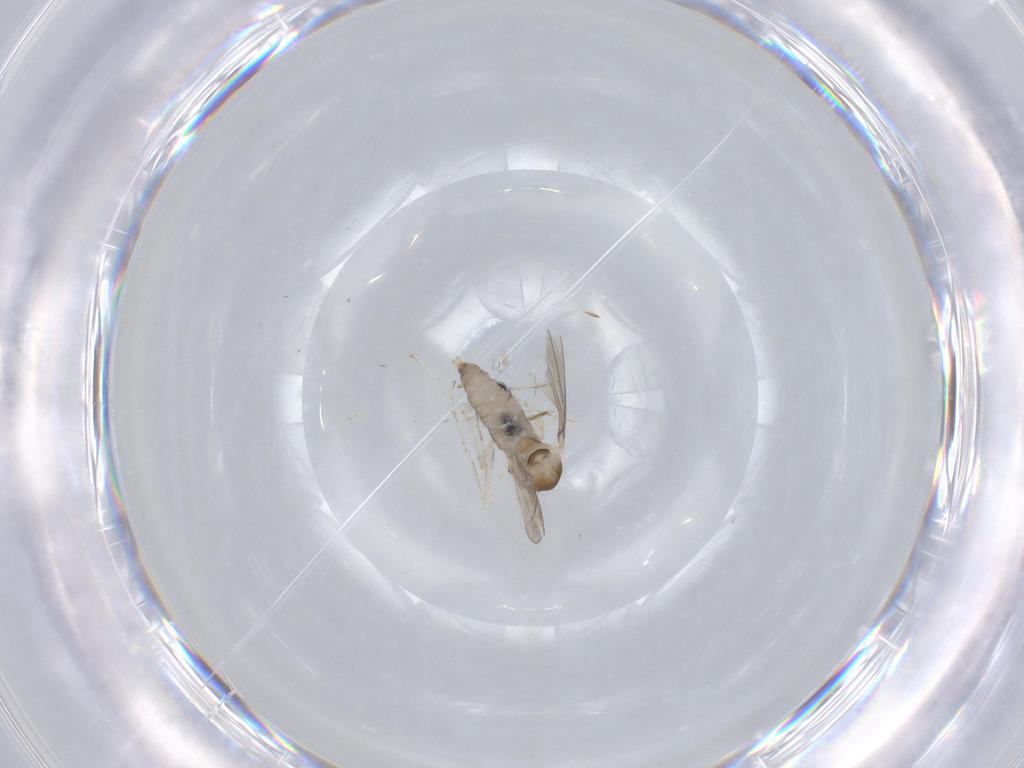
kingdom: Animalia
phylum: Arthropoda
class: Insecta
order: Diptera
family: Cecidomyiidae
